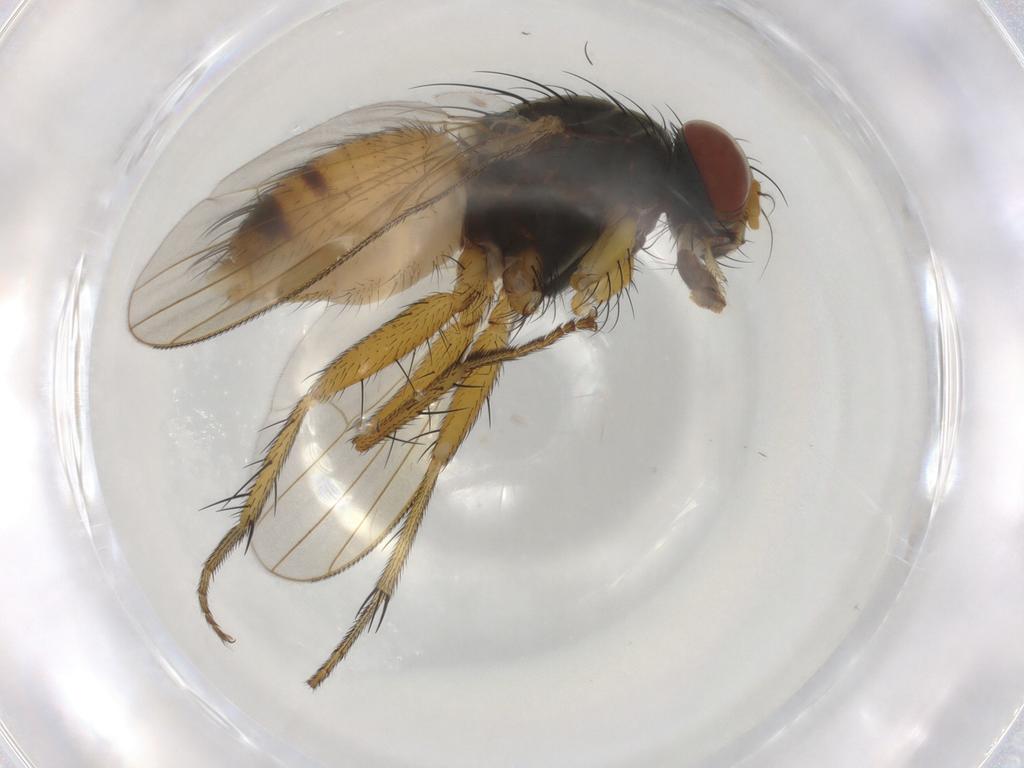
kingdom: Animalia
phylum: Arthropoda
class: Insecta
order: Diptera
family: Muscidae
